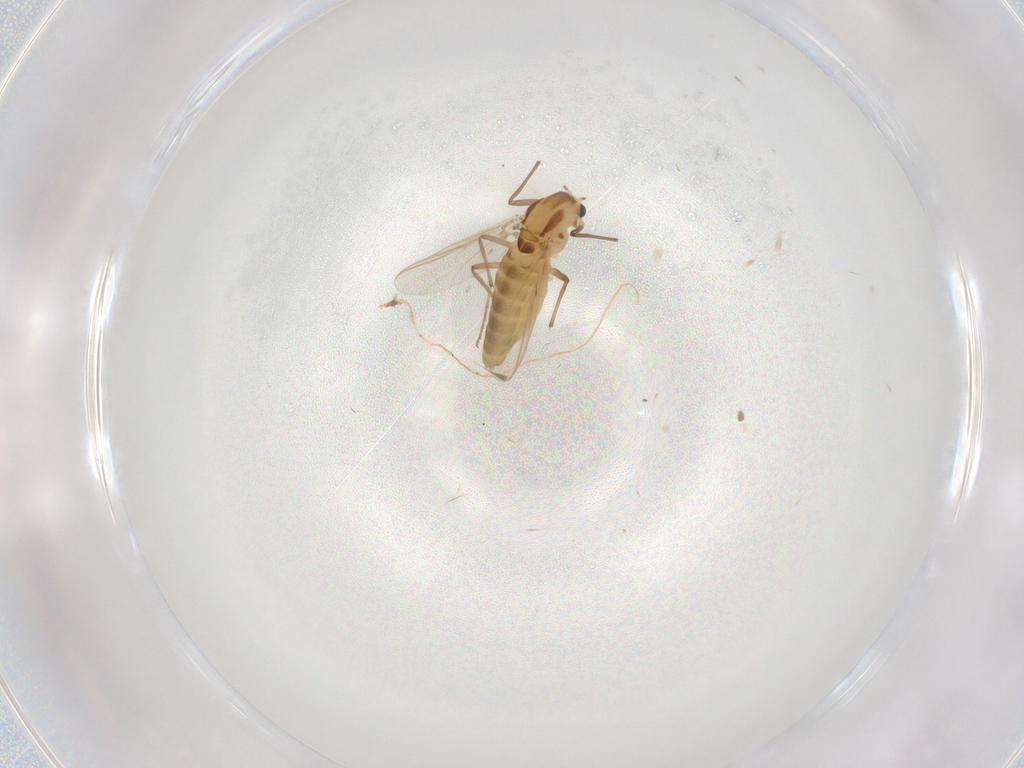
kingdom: Animalia
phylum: Arthropoda
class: Insecta
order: Diptera
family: Chironomidae
